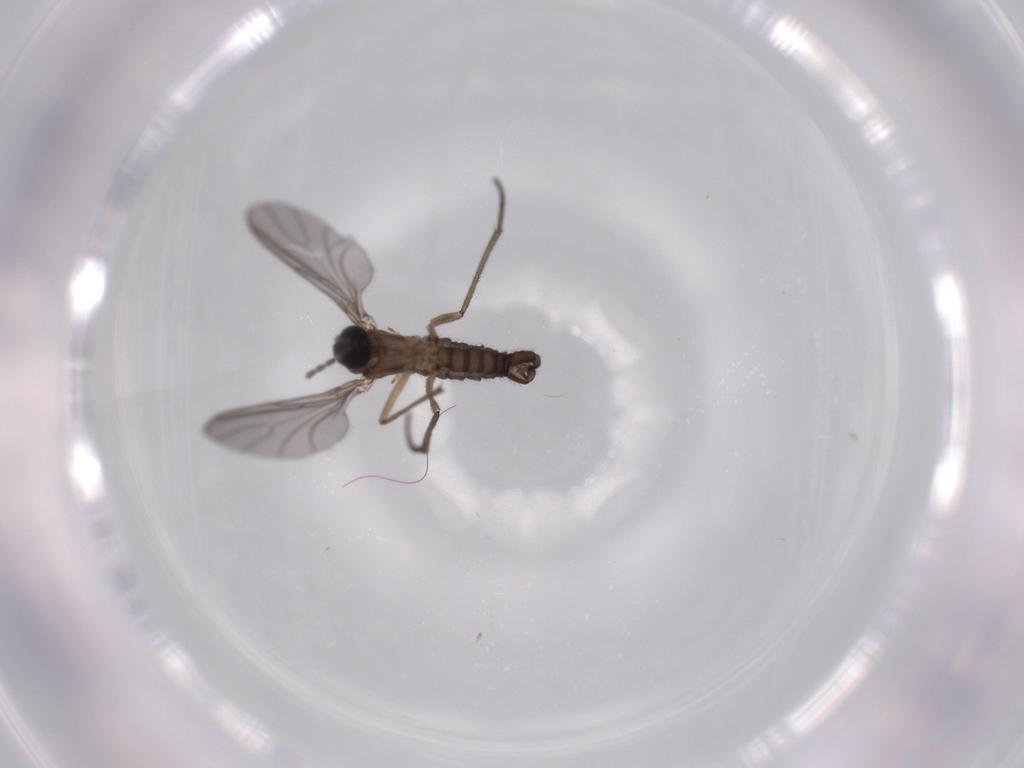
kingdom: Animalia
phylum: Arthropoda
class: Insecta
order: Diptera
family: Sciaridae
